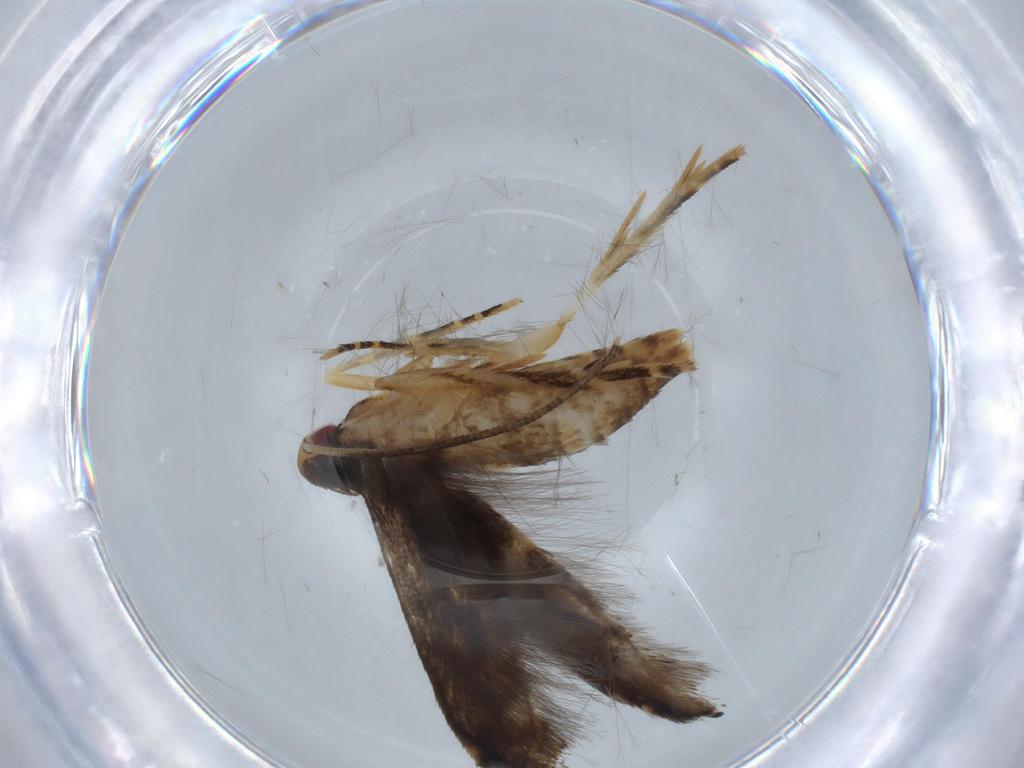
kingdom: Animalia
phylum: Arthropoda
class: Insecta
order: Lepidoptera
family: Momphidae
